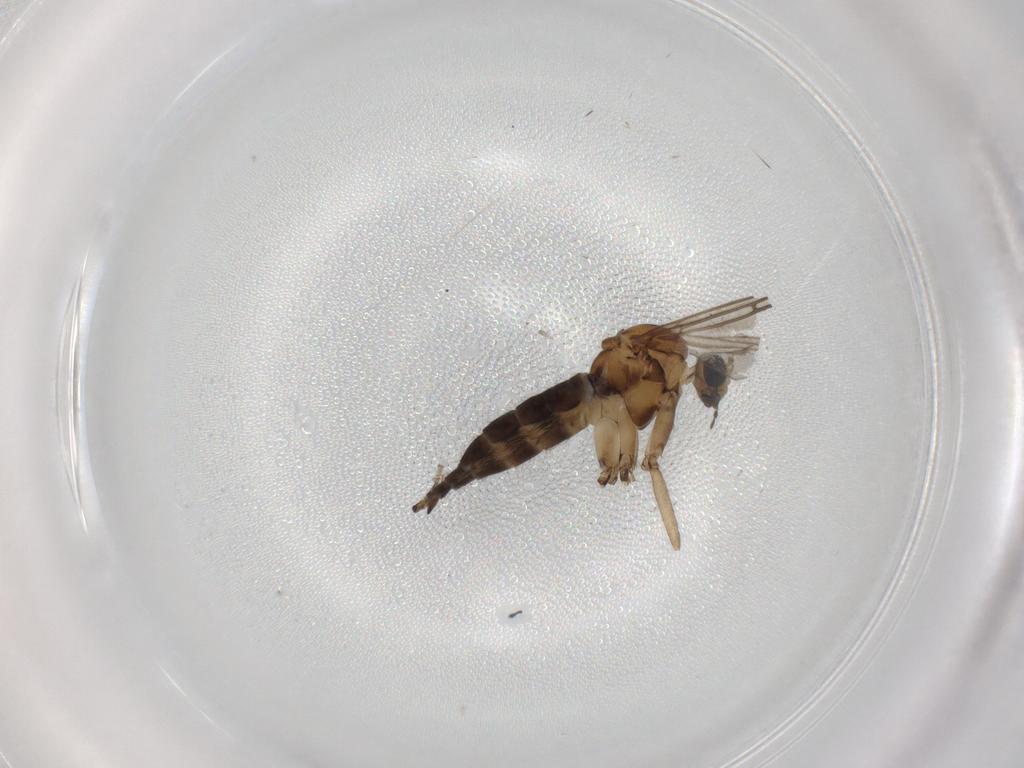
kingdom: Animalia
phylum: Arthropoda
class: Insecta
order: Diptera
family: Sciaridae
